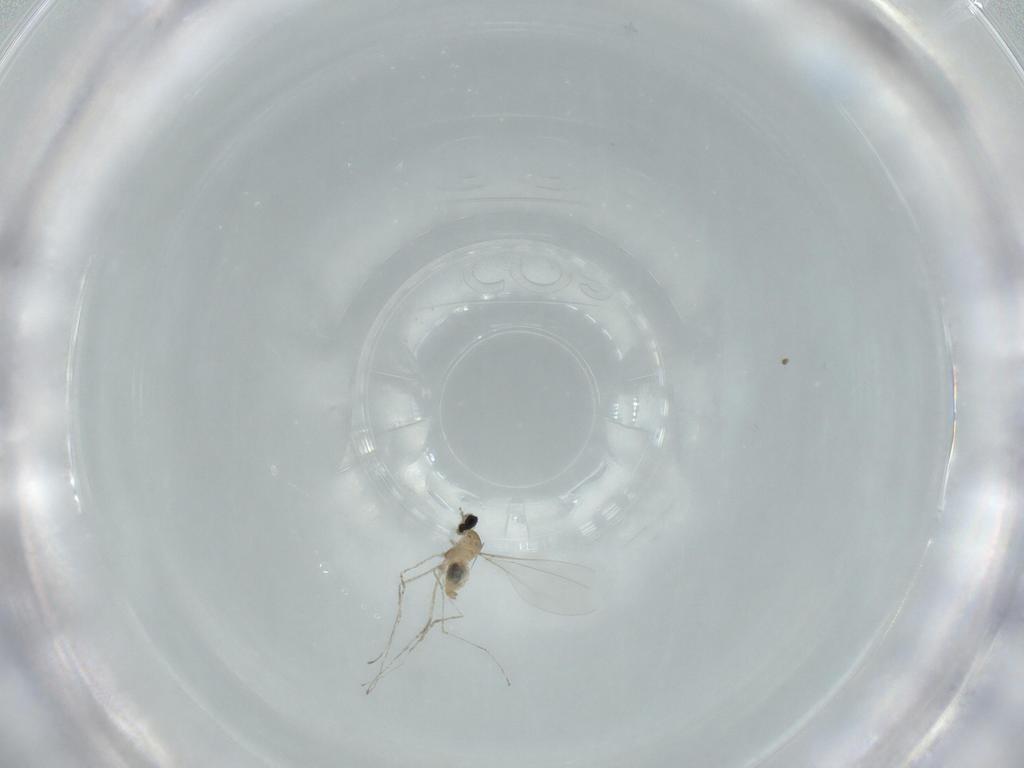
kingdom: Animalia
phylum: Arthropoda
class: Insecta
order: Diptera
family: Cecidomyiidae
